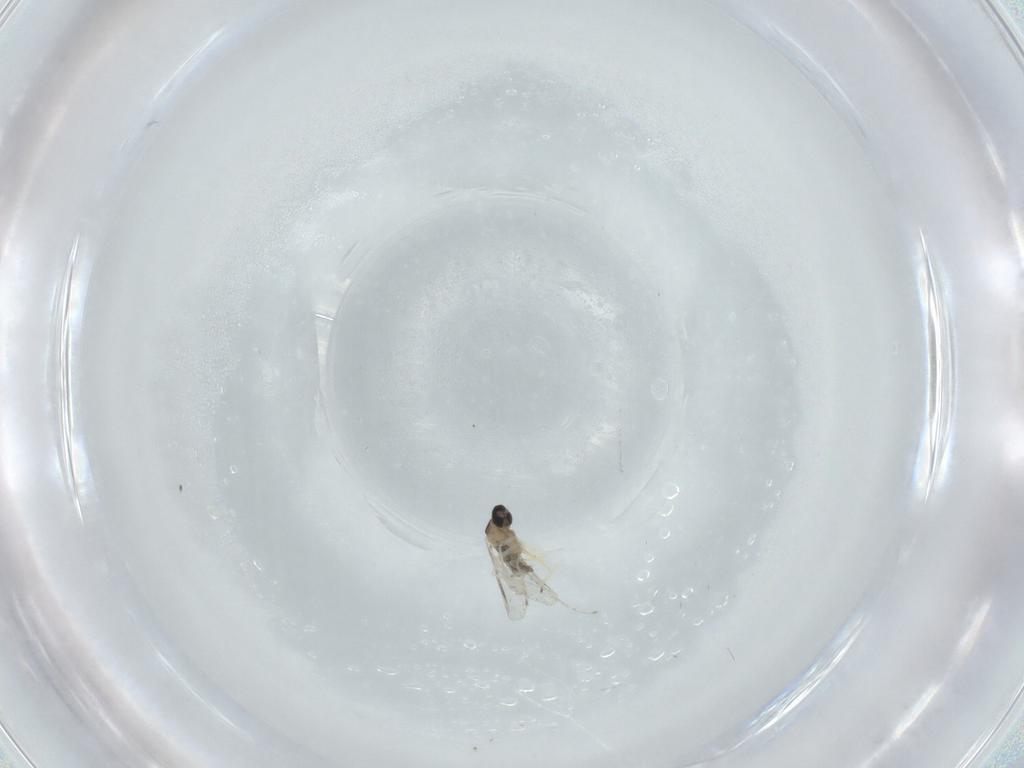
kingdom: Animalia
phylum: Arthropoda
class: Insecta
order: Diptera
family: Cecidomyiidae
